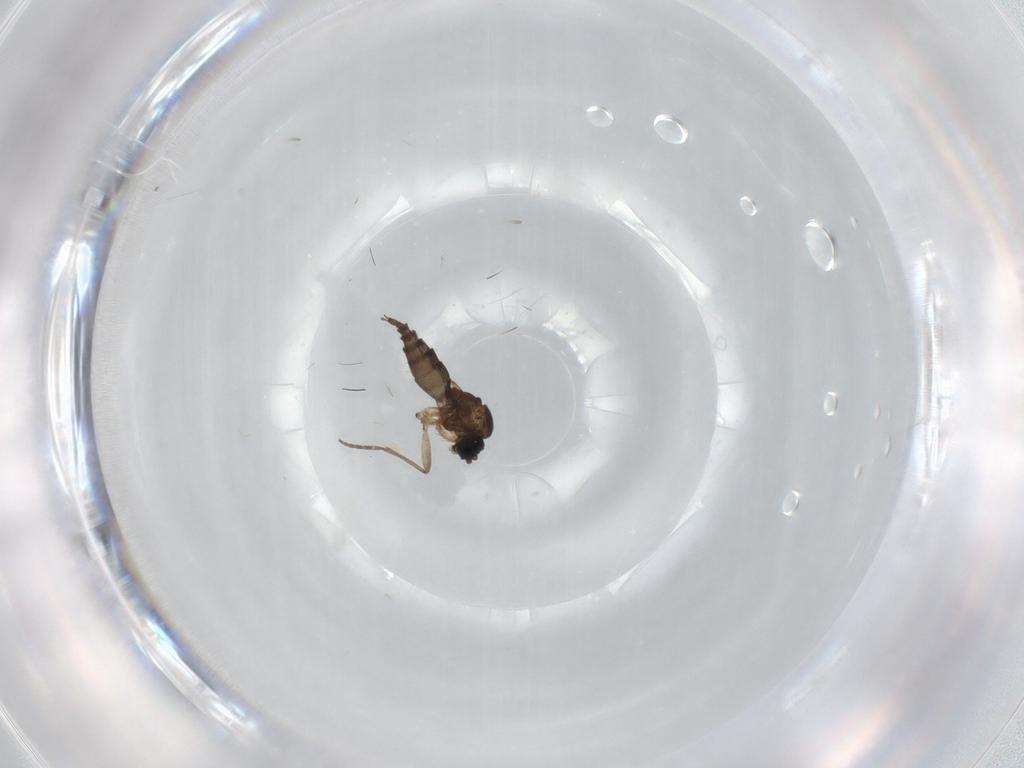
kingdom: Animalia
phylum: Arthropoda
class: Insecta
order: Diptera
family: Sciaridae
